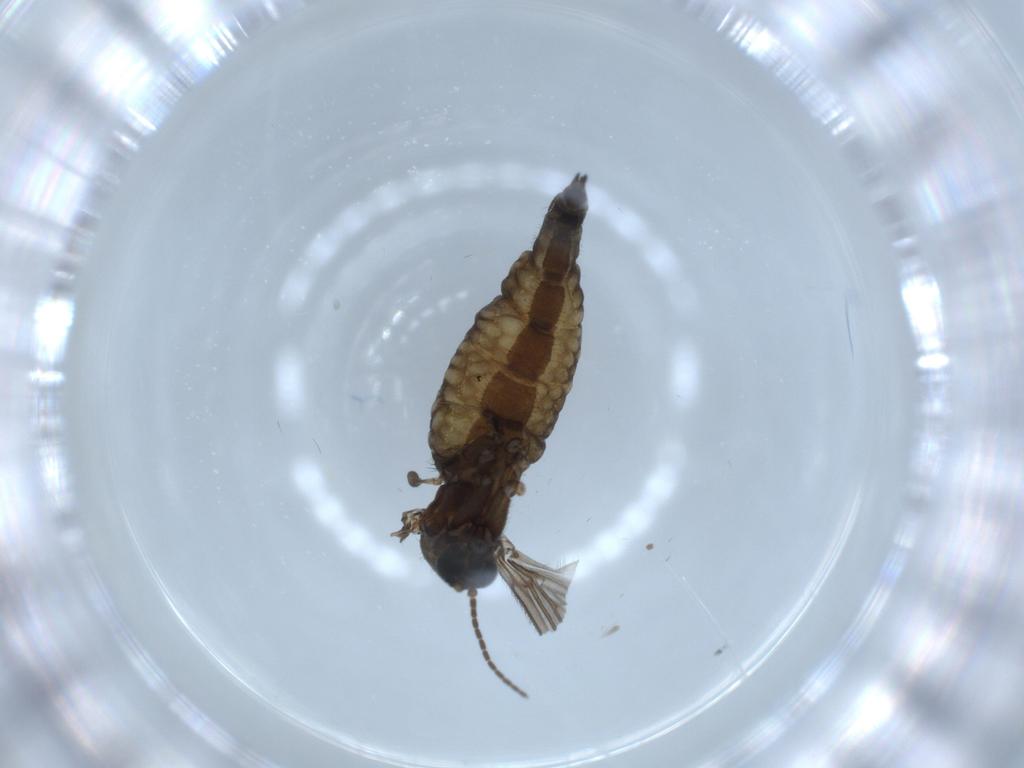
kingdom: Animalia
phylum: Arthropoda
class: Insecta
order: Diptera
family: Sciaridae
